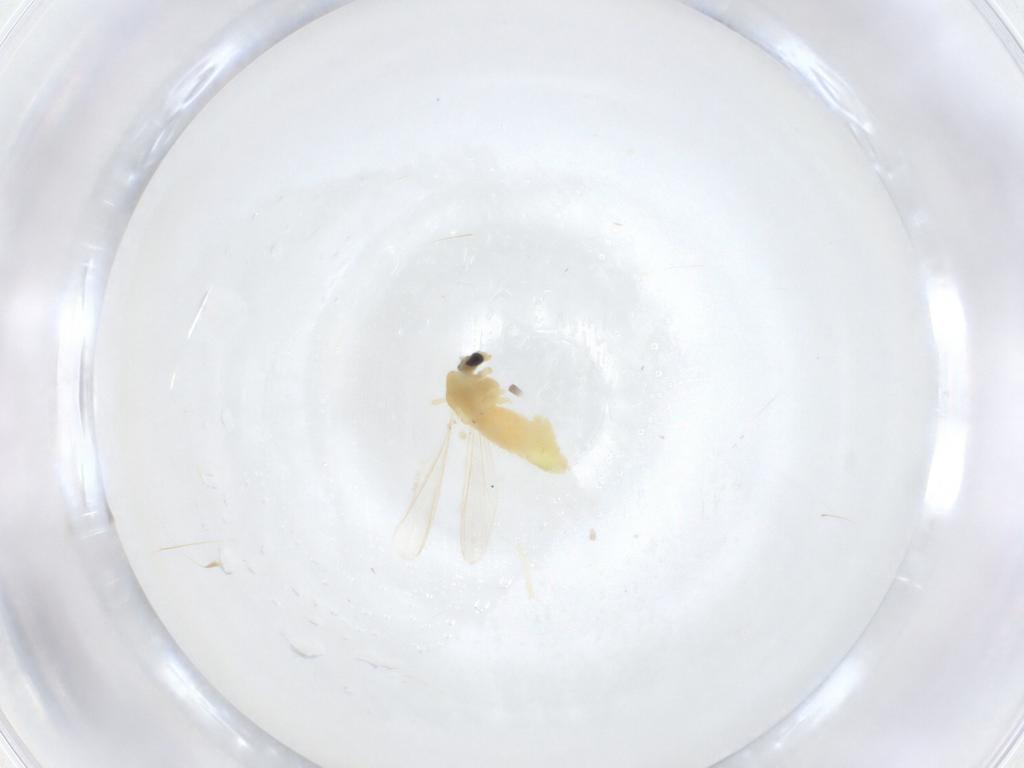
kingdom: Animalia
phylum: Arthropoda
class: Insecta
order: Diptera
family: Chironomidae
